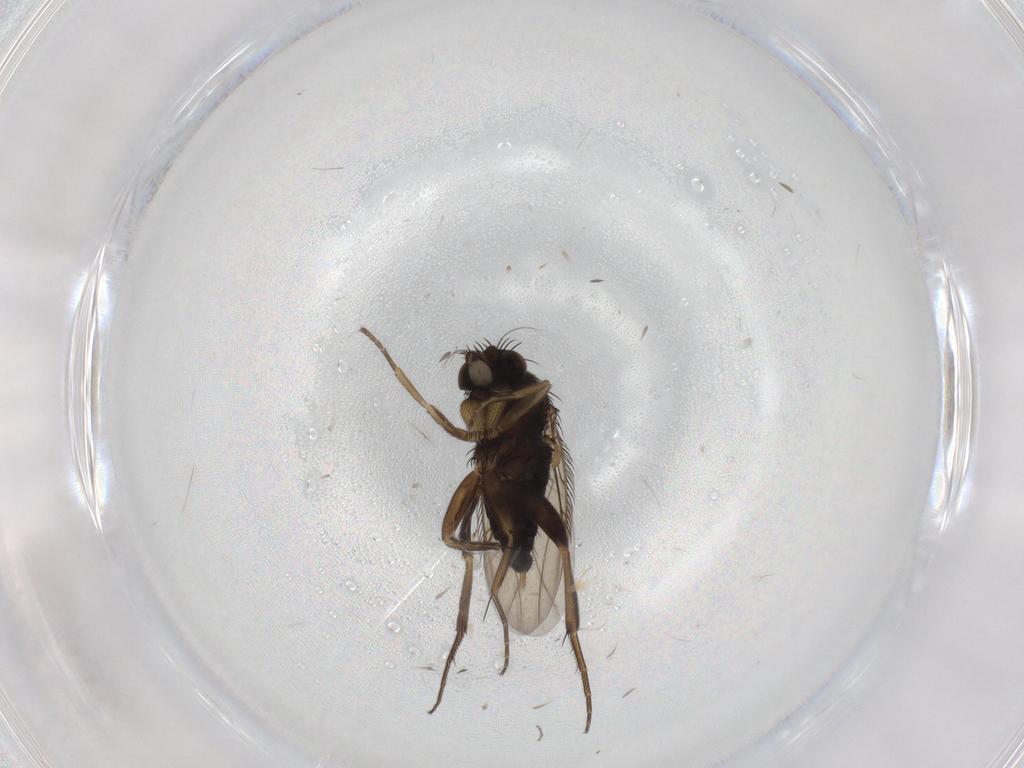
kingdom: Animalia
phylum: Arthropoda
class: Insecta
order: Diptera
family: Phoridae
